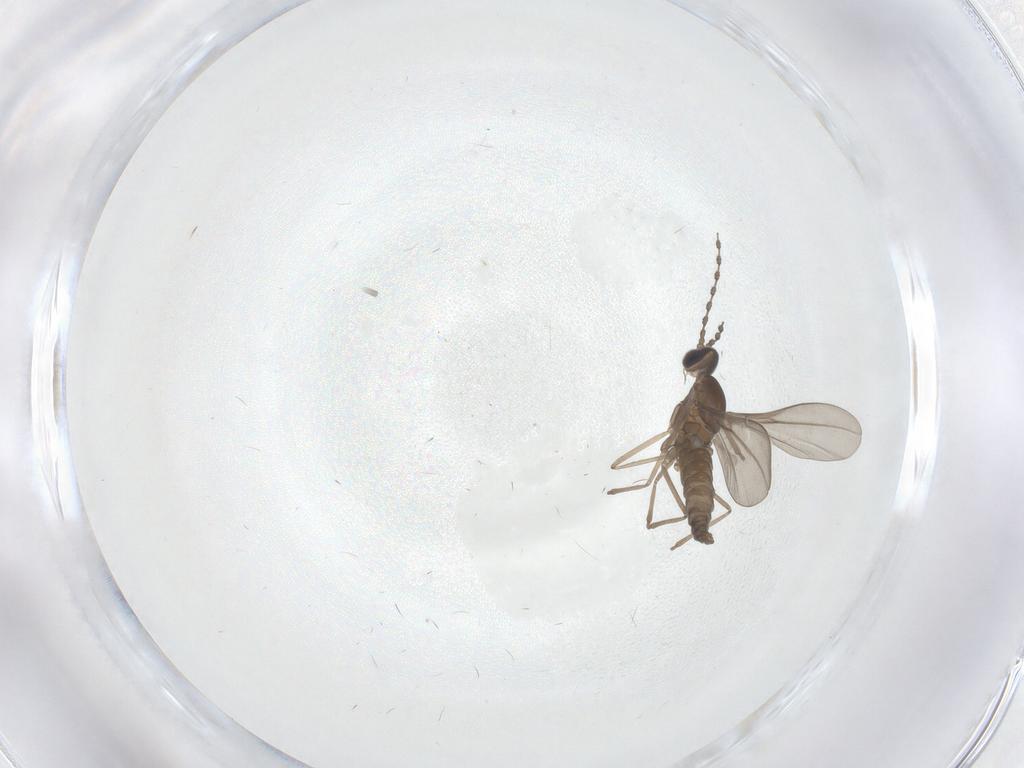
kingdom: Animalia
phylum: Arthropoda
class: Insecta
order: Diptera
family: Cecidomyiidae
